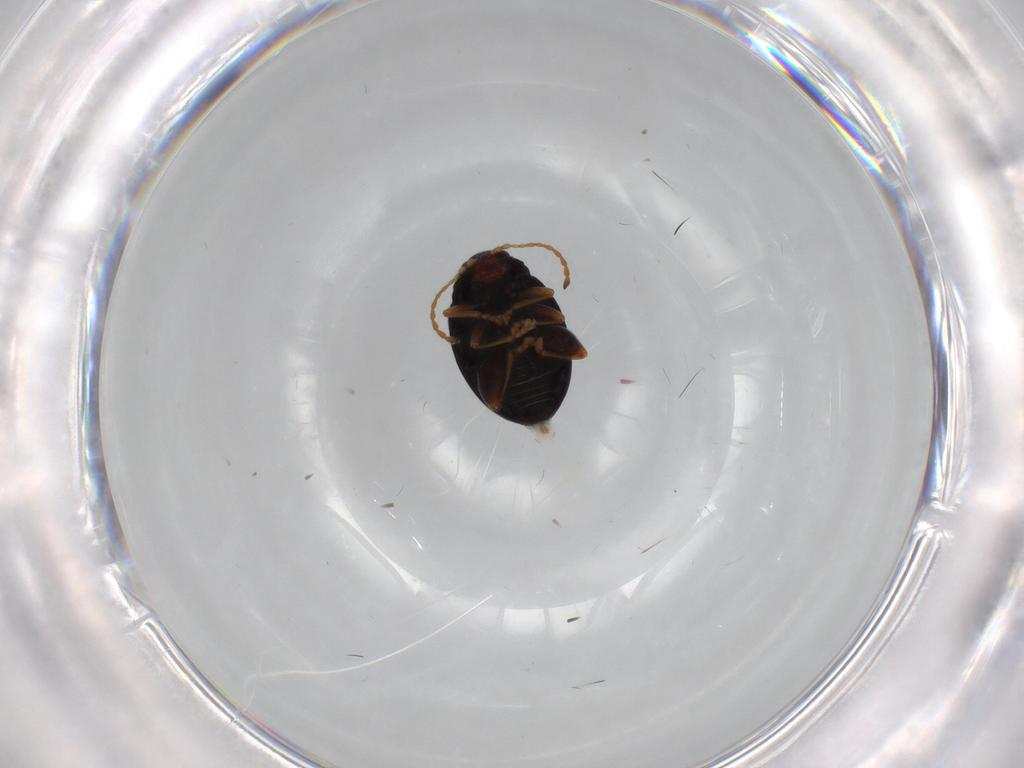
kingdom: Animalia
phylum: Arthropoda
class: Insecta
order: Coleoptera
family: Chrysomelidae
